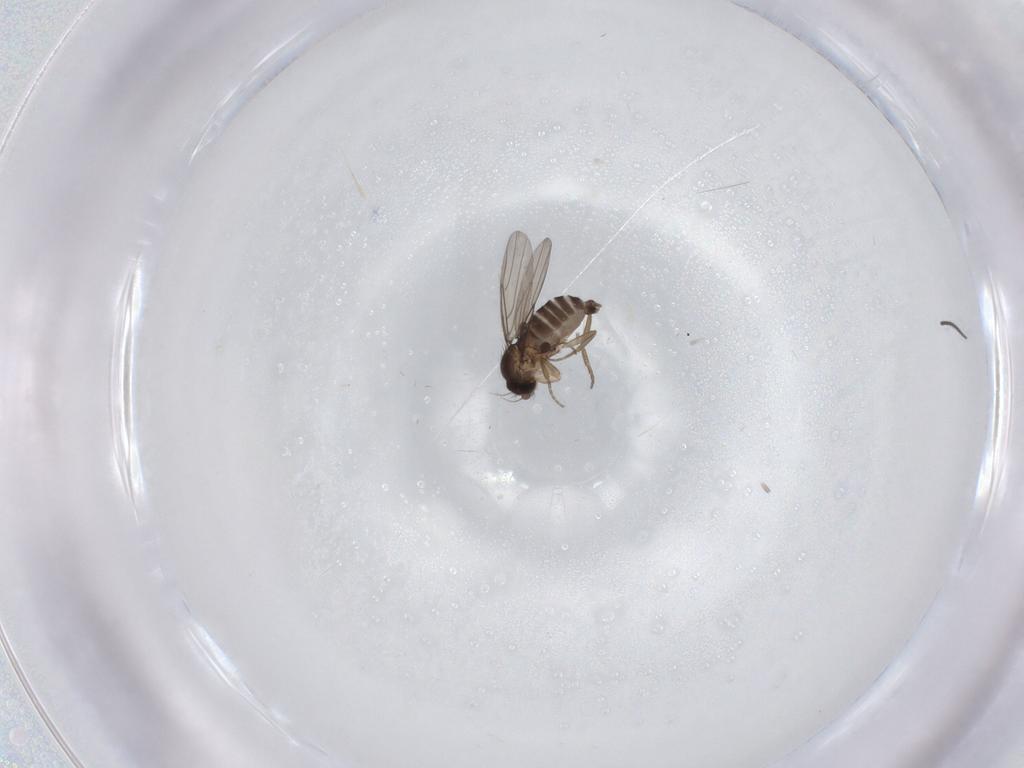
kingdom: Animalia
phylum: Arthropoda
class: Insecta
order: Diptera
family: Phoridae
